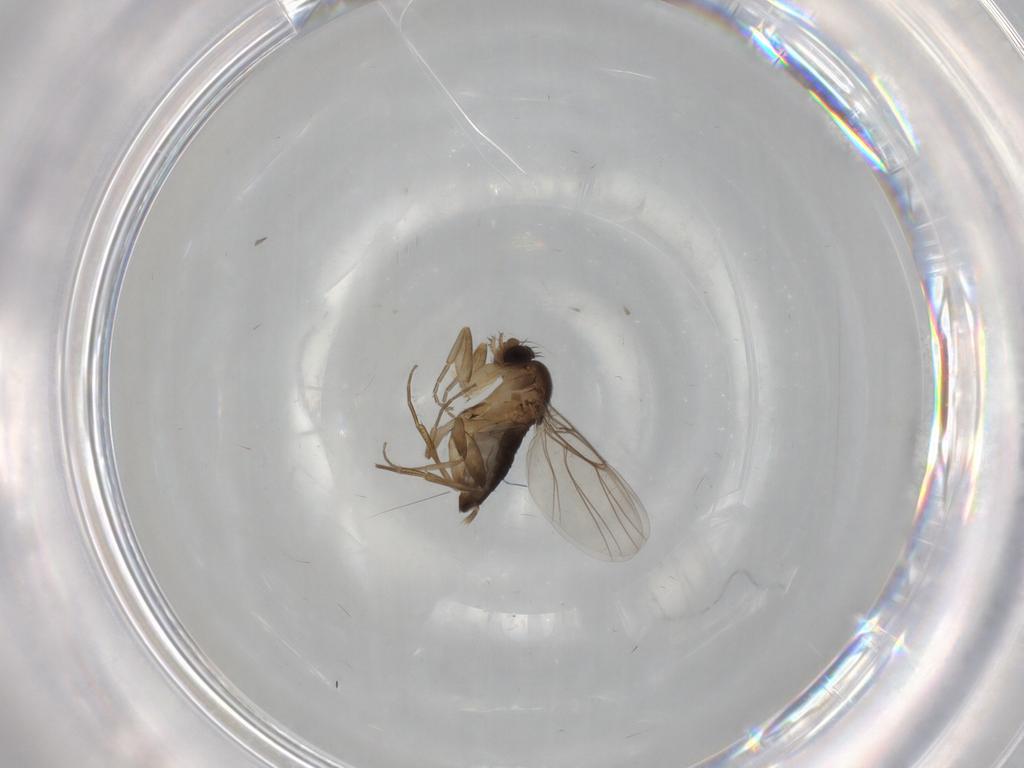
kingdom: Animalia
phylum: Arthropoda
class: Insecta
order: Diptera
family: Phoridae
